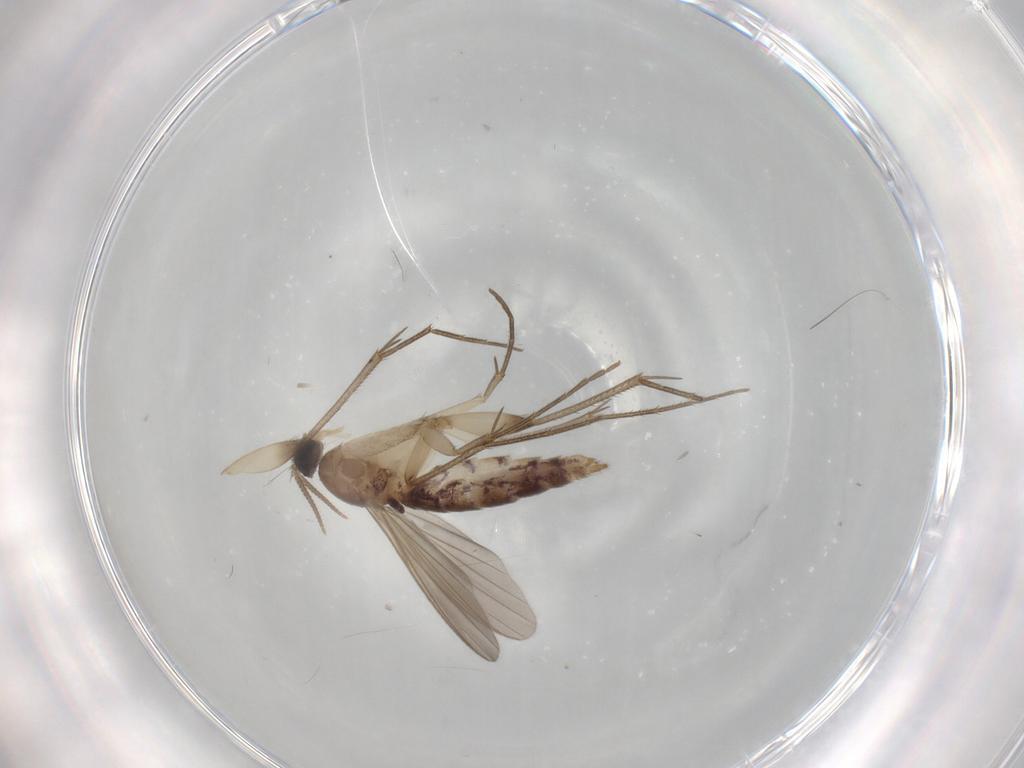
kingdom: Animalia
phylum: Arthropoda
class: Insecta
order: Diptera
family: Mycetophilidae
